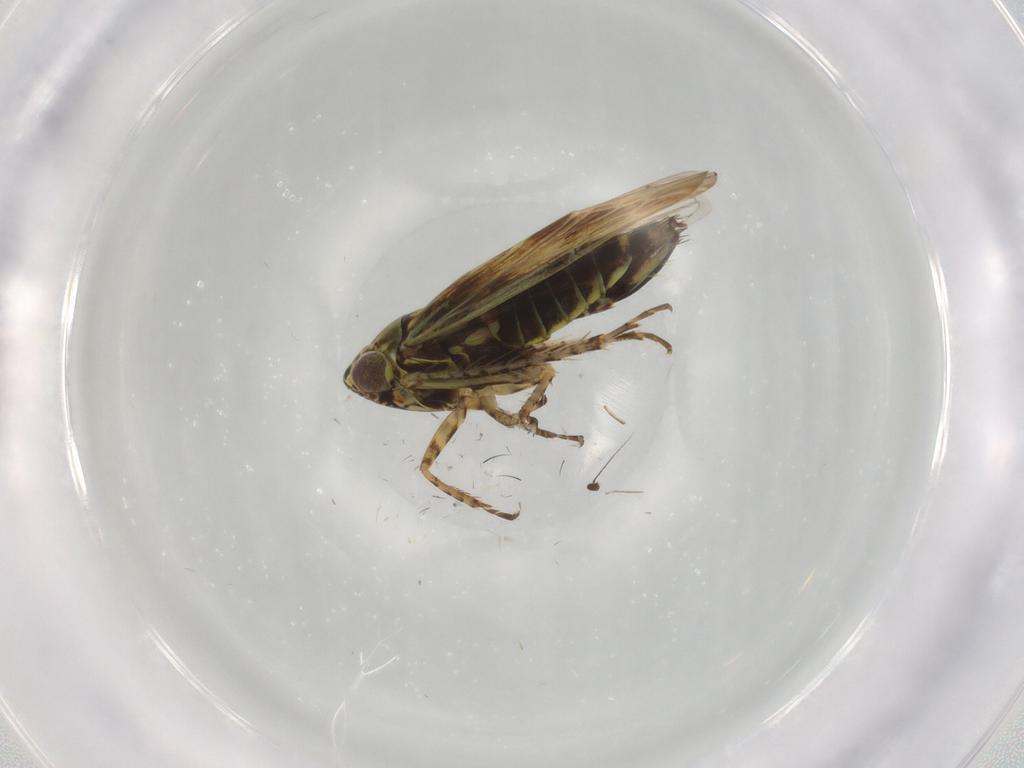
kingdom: Animalia
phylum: Arthropoda
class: Insecta
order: Hemiptera
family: Cicadellidae
